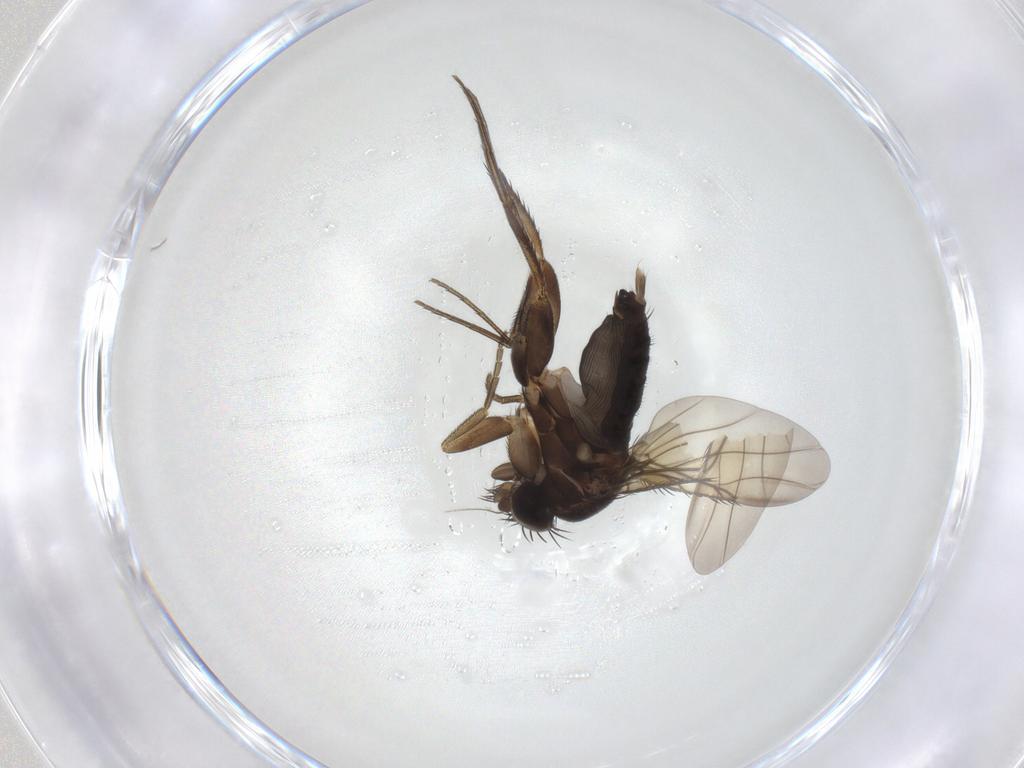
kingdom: Animalia
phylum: Arthropoda
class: Insecta
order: Diptera
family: Phoridae
